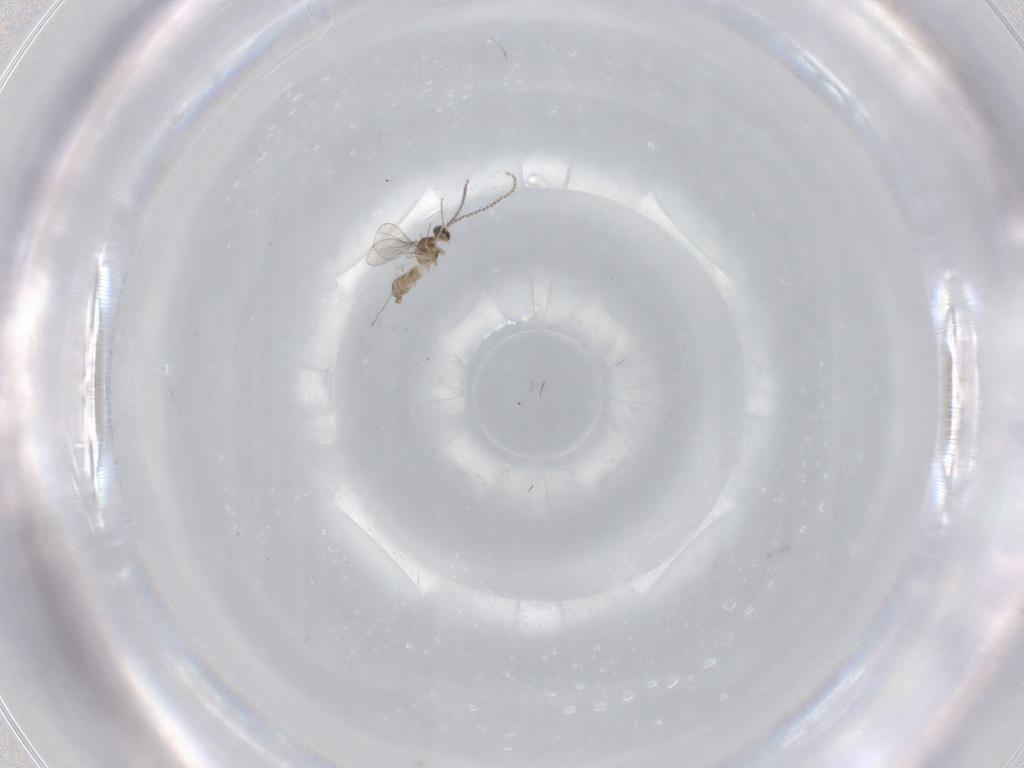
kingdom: Animalia
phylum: Arthropoda
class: Insecta
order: Diptera
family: Cecidomyiidae
